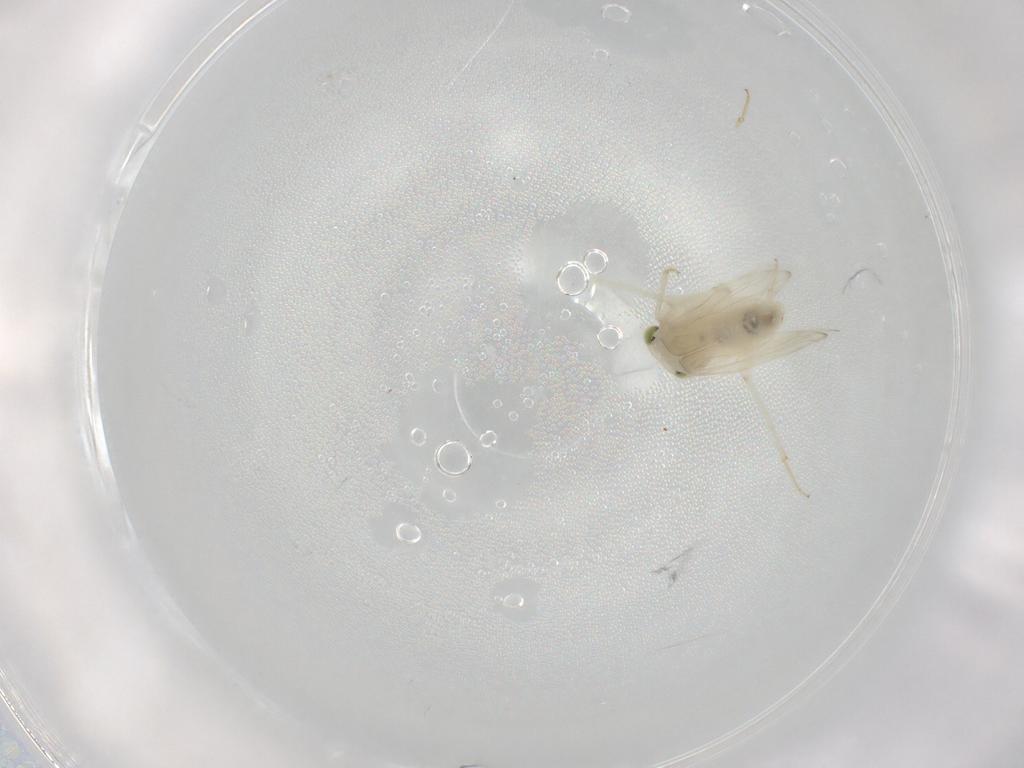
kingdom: Animalia
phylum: Arthropoda
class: Insecta
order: Psocodea
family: Lepidopsocidae
